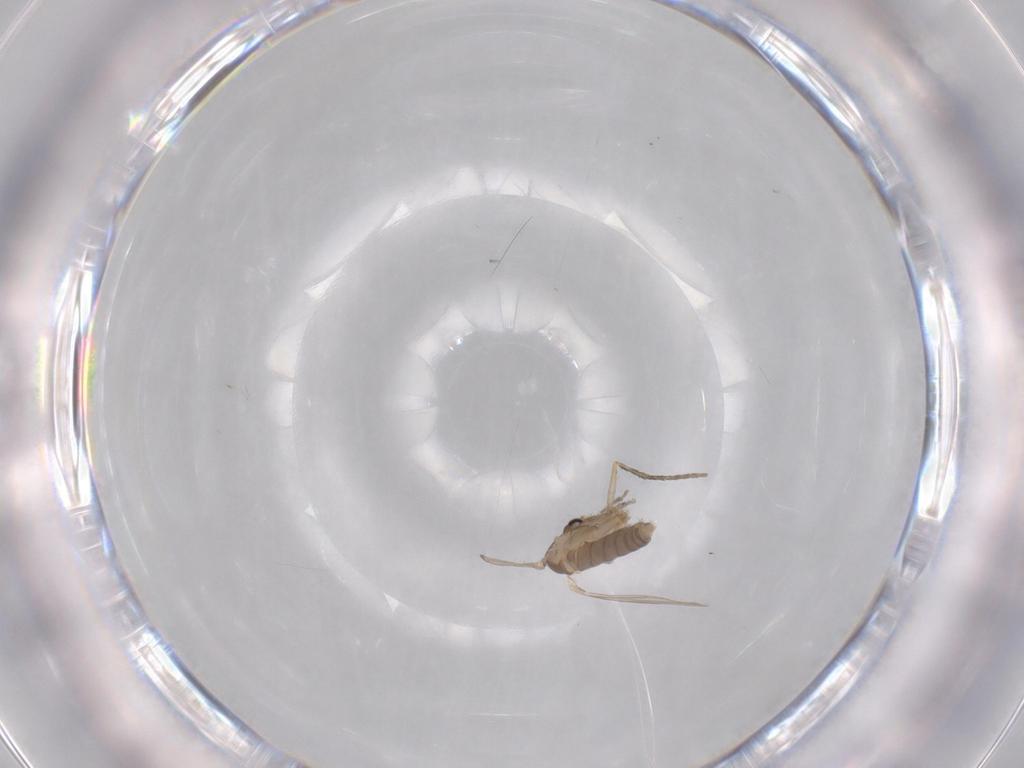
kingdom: Animalia
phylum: Arthropoda
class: Insecta
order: Diptera
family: Psychodidae
